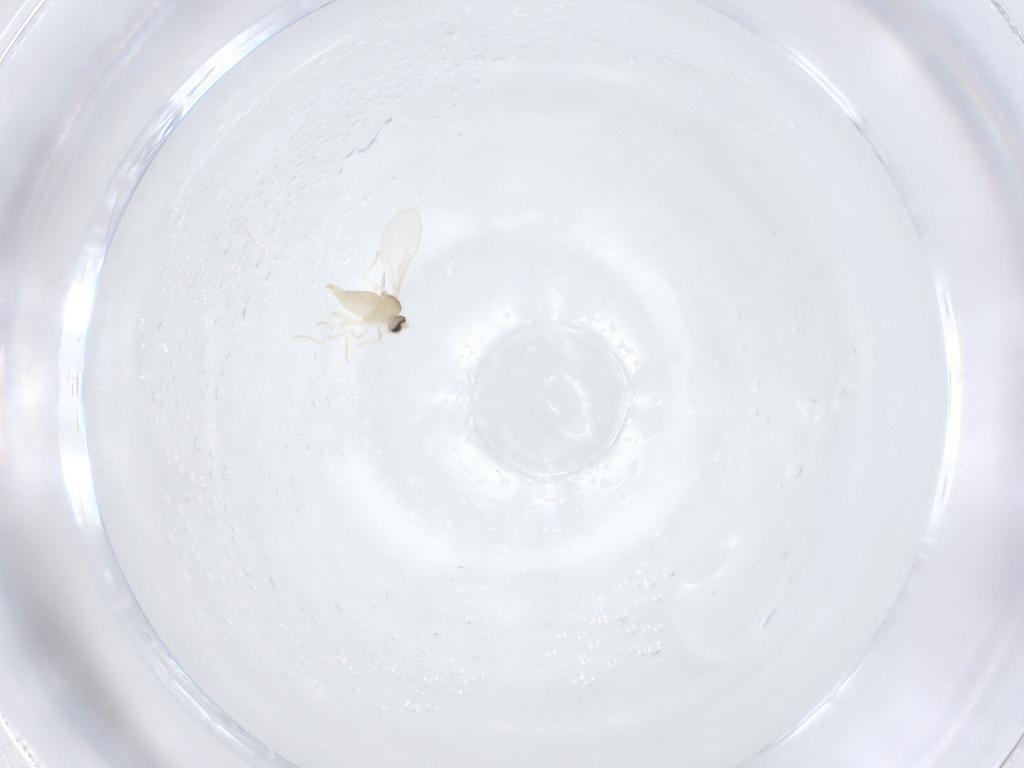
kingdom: Animalia
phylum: Arthropoda
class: Insecta
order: Diptera
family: Cecidomyiidae
